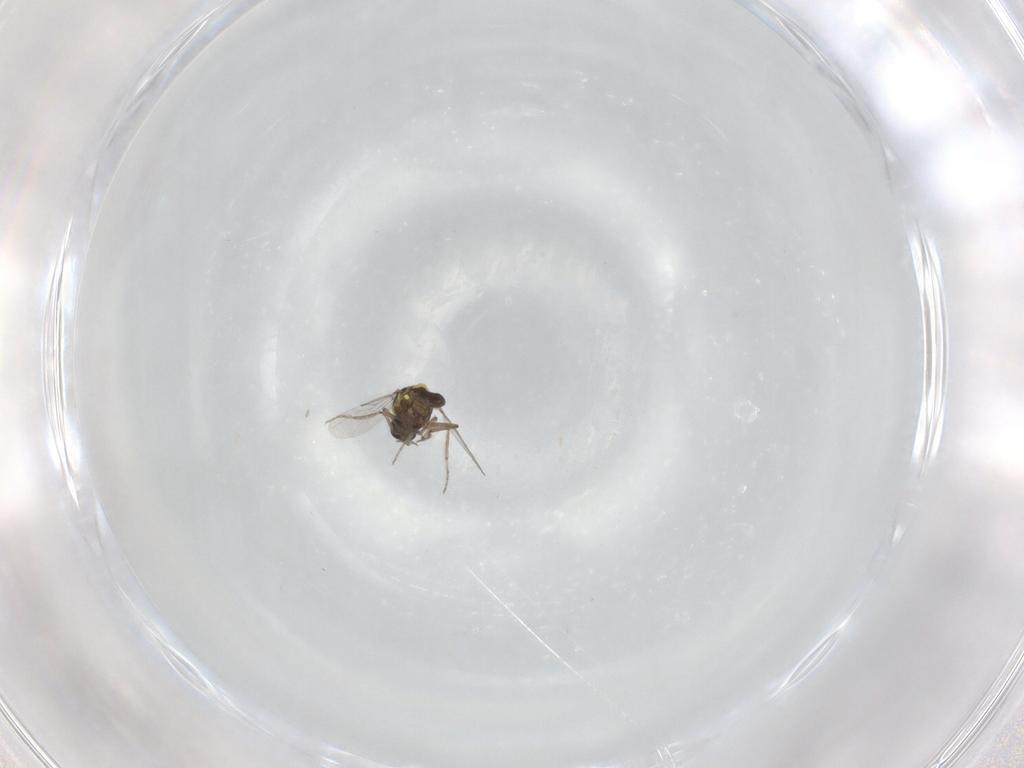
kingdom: Animalia
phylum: Arthropoda
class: Insecta
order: Diptera
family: Ceratopogonidae
